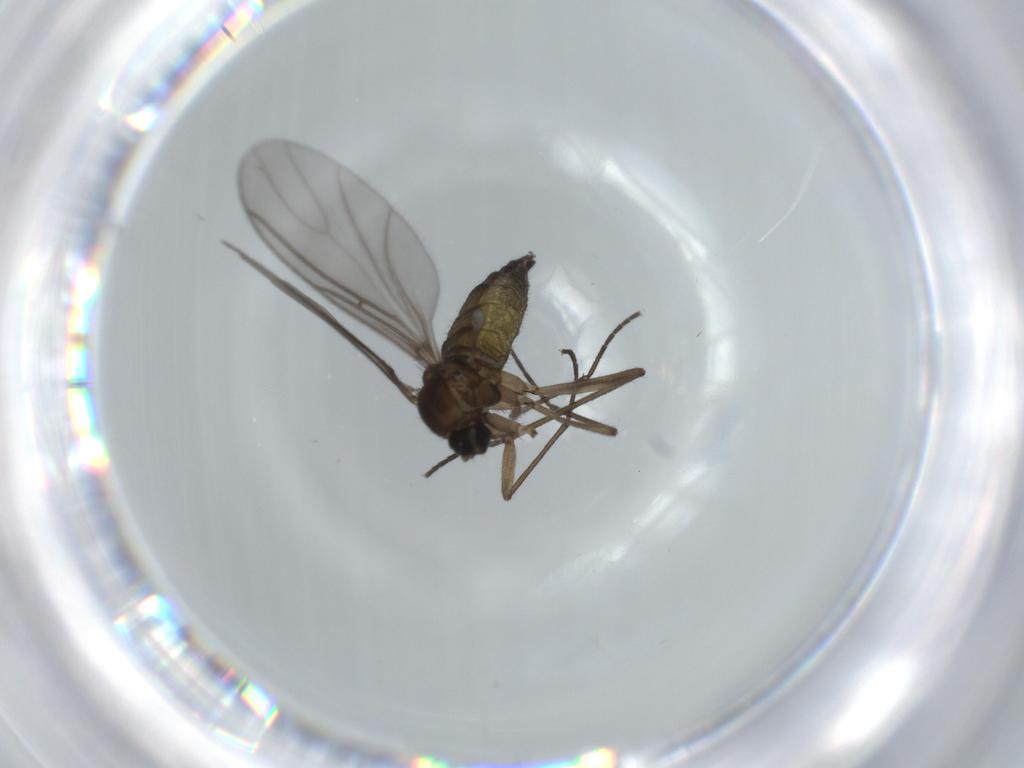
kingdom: Animalia
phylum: Arthropoda
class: Insecta
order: Diptera
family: Sciaridae
